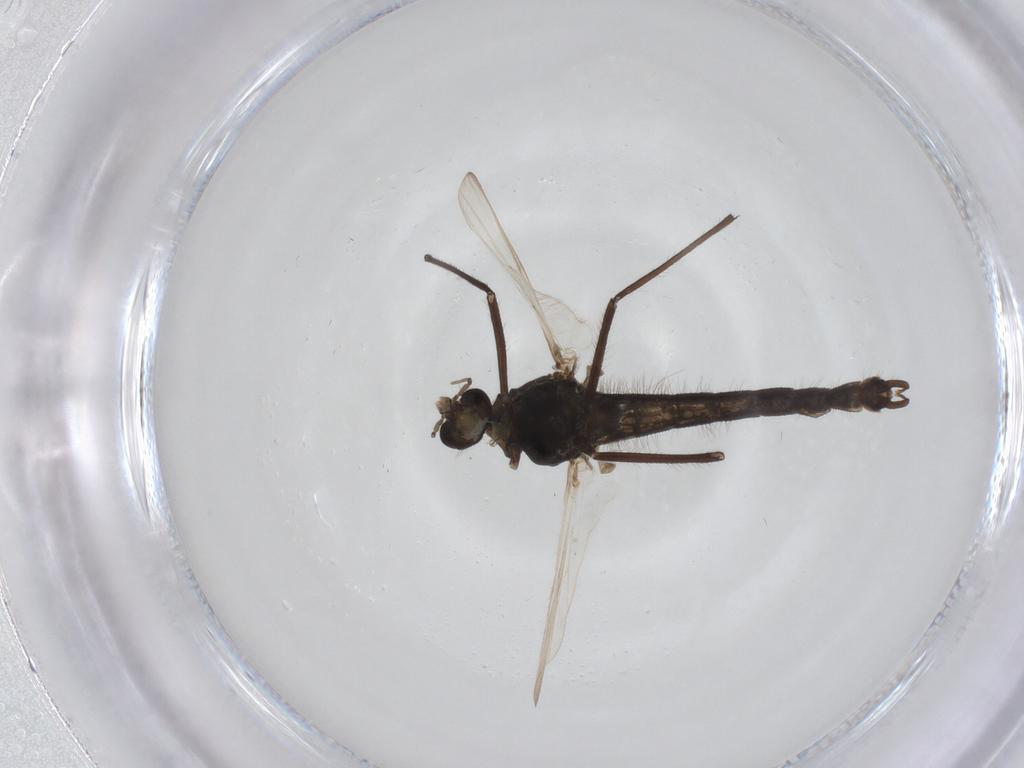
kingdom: Animalia
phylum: Arthropoda
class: Insecta
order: Diptera
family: Chironomidae
